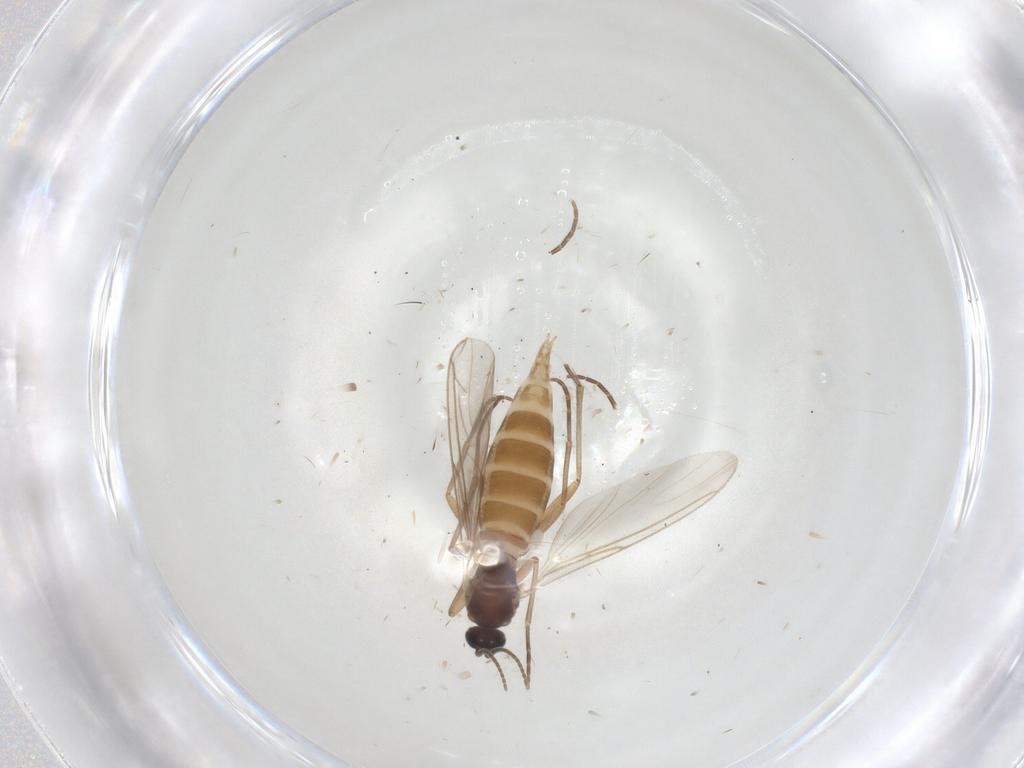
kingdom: Animalia
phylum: Arthropoda
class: Insecta
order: Diptera
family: Sciaridae
